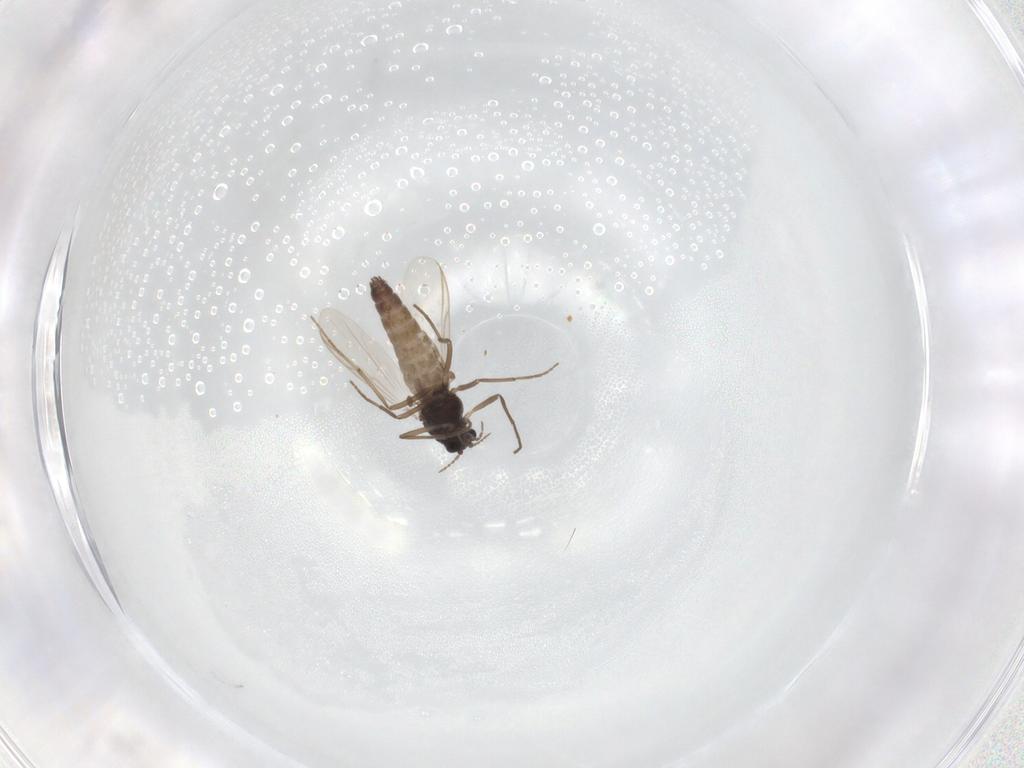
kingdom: Animalia
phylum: Arthropoda
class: Insecta
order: Diptera
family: Chironomidae
